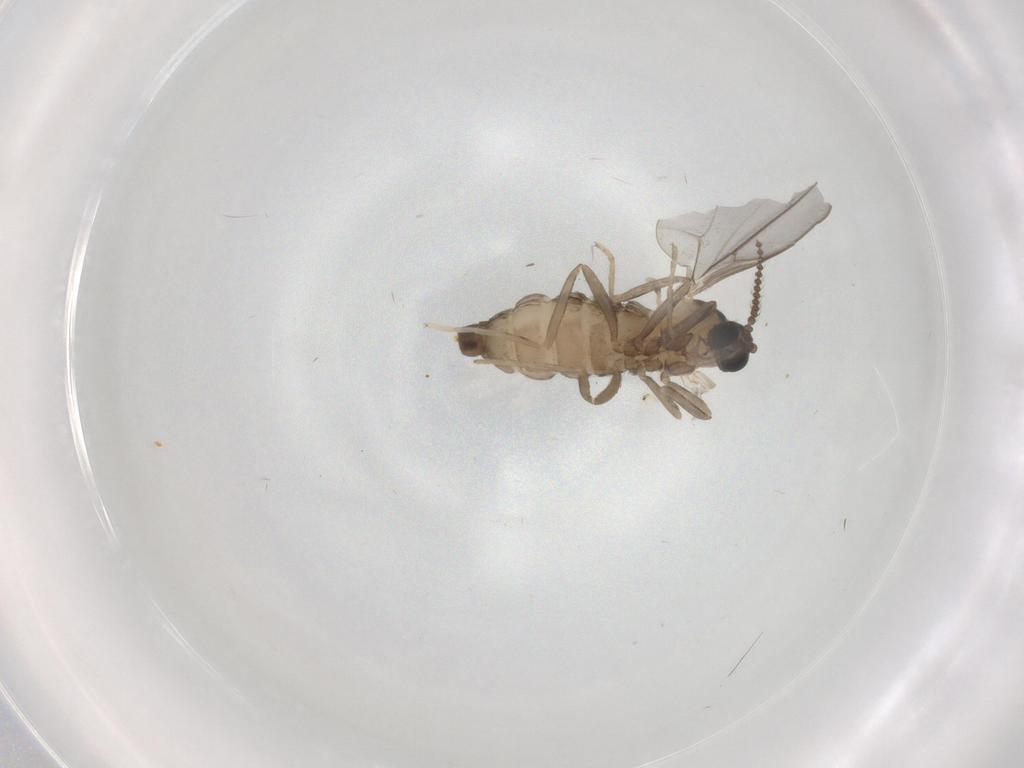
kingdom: Animalia
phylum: Arthropoda
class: Insecta
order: Diptera
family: Cecidomyiidae
